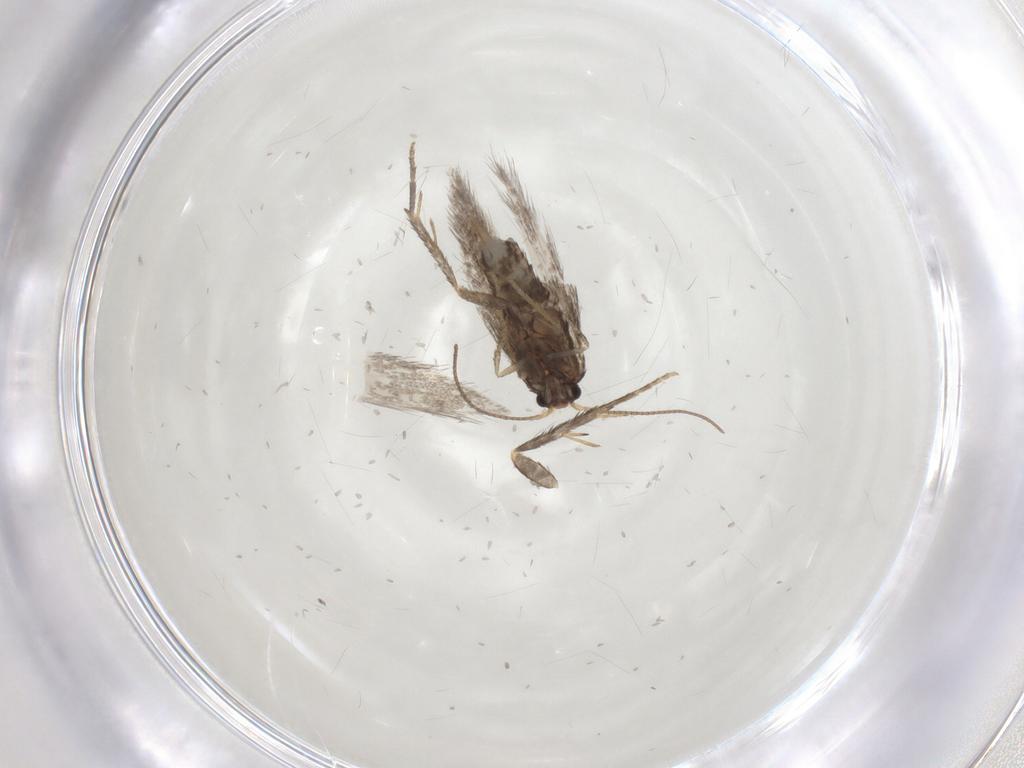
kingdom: Animalia
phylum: Arthropoda
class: Insecta
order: Lepidoptera
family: Nepticulidae
